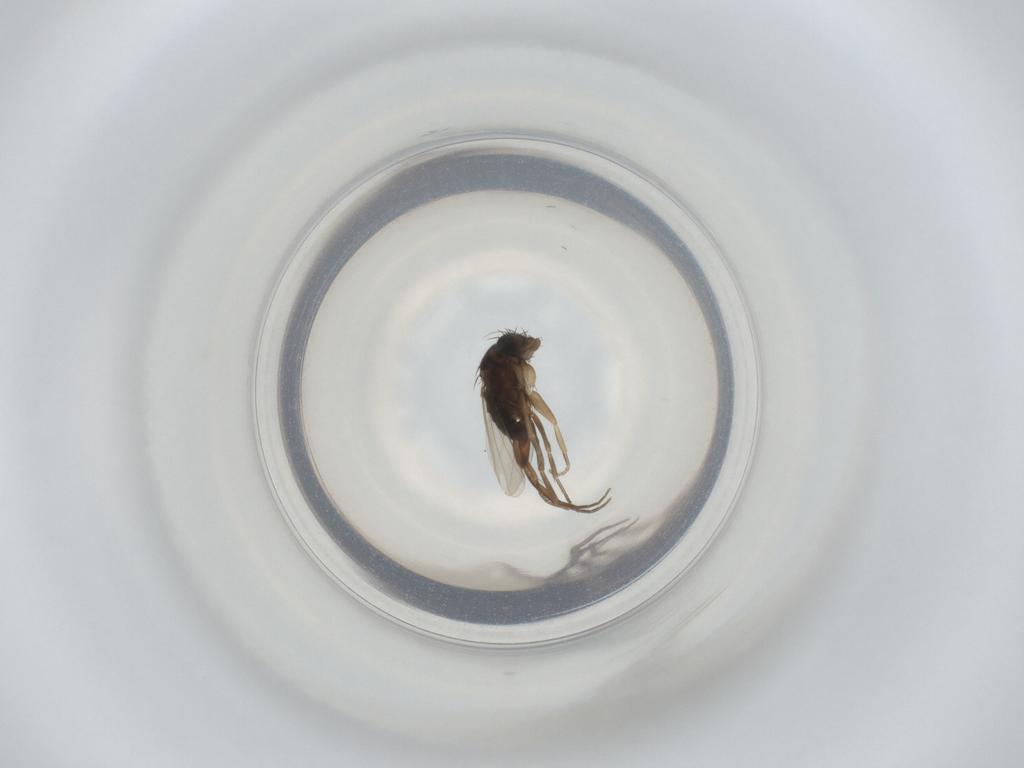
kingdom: Animalia
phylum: Arthropoda
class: Insecta
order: Diptera
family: Phoridae
